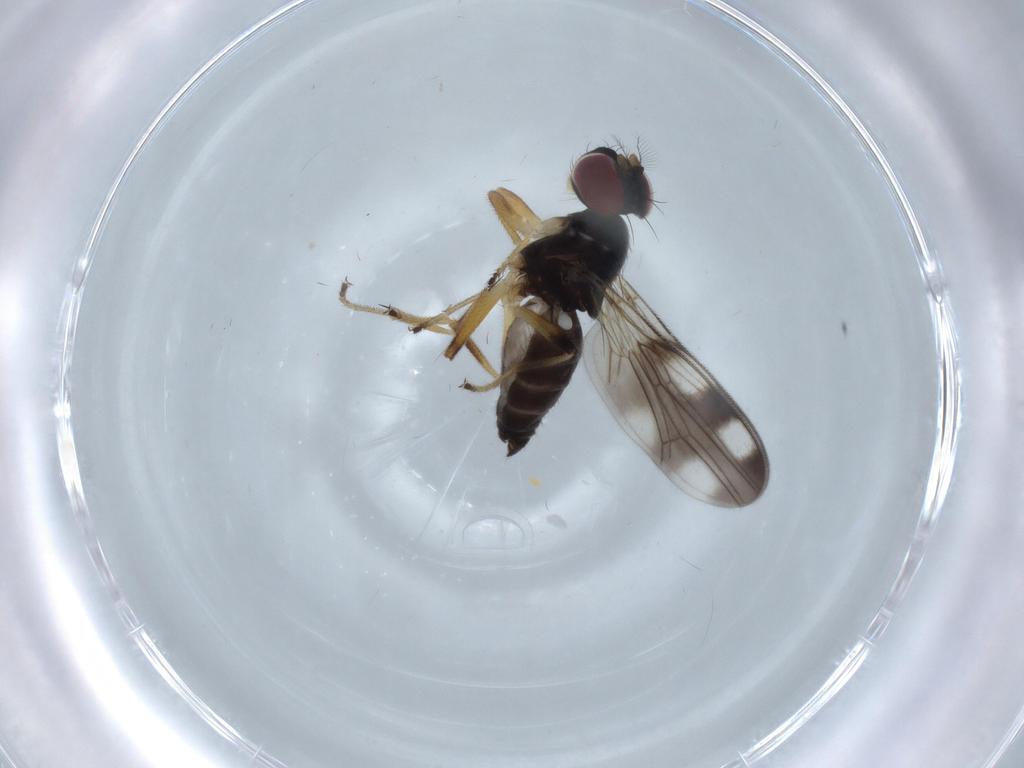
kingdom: Animalia
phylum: Arthropoda
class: Insecta
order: Diptera
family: Periscelididae
